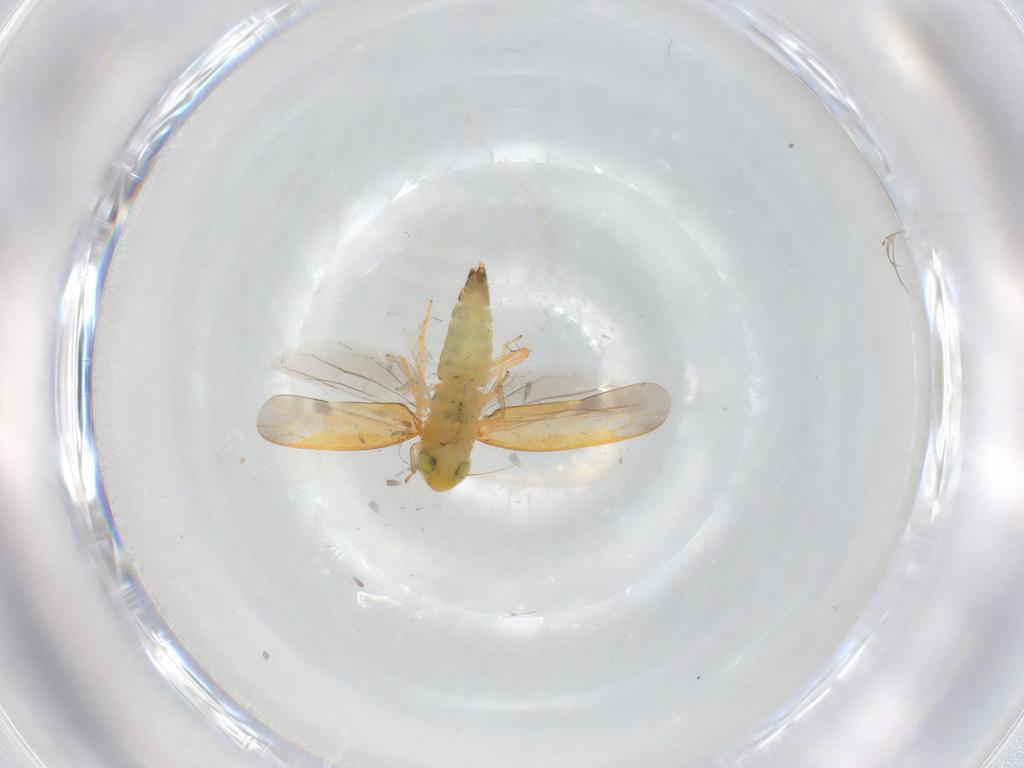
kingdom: Animalia
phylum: Arthropoda
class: Insecta
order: Hemiptera
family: Cicadellidae
